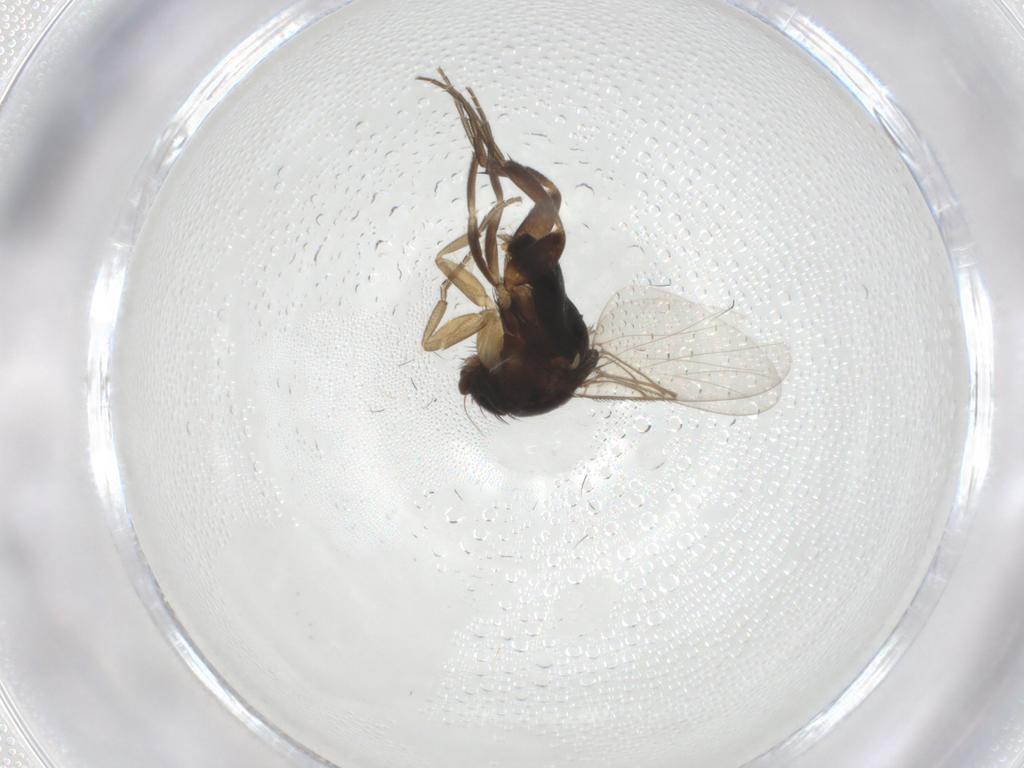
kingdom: Animalia
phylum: Arthropoda
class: Insecta
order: Diptera
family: Phoridae
